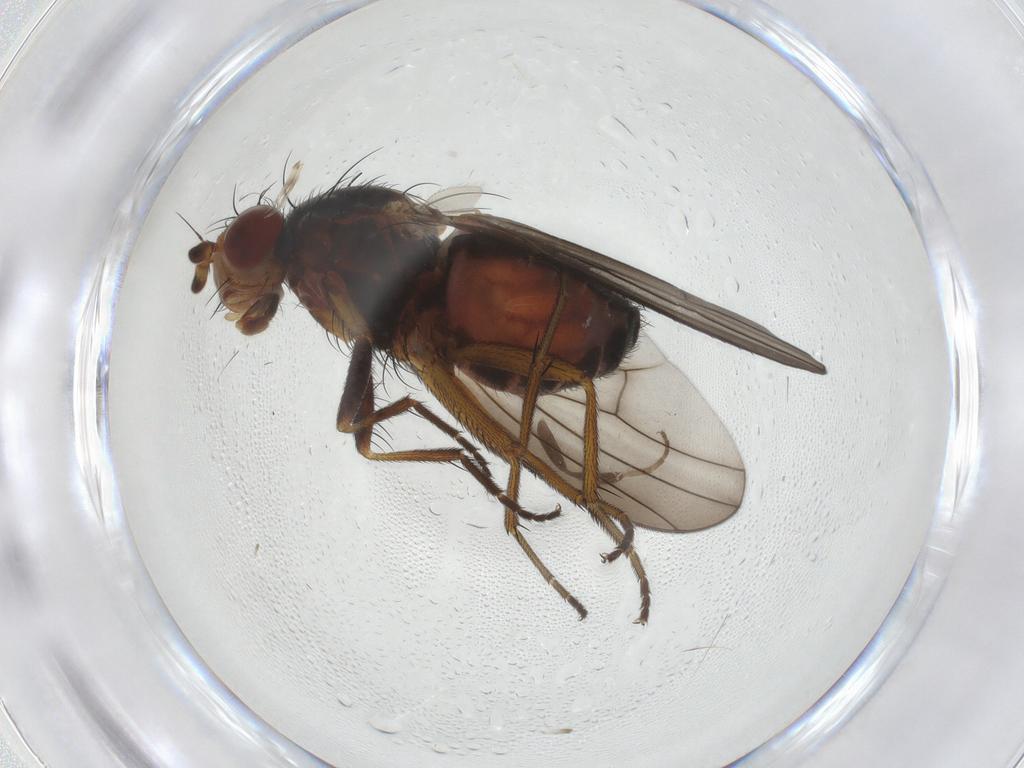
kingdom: Animalia
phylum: Arthropoda
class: Insecta
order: Diptera
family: Heleomyzidae
